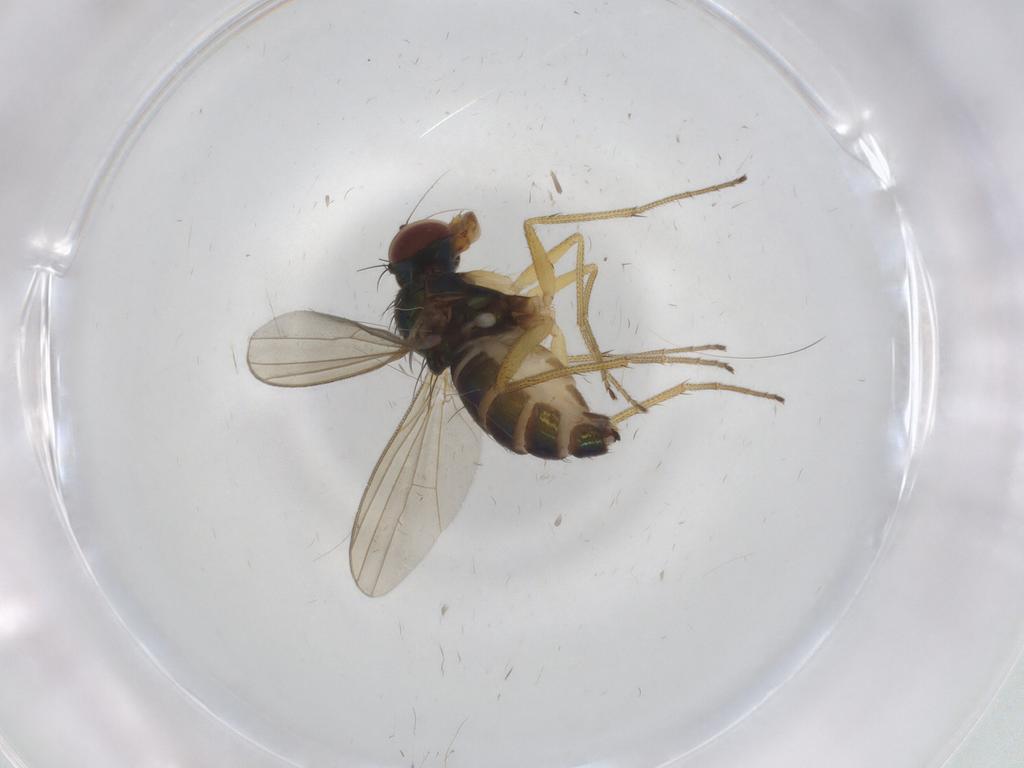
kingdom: Animalia
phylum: Arthropoda
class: Insecta
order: Diptera
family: Dolichopodidae
